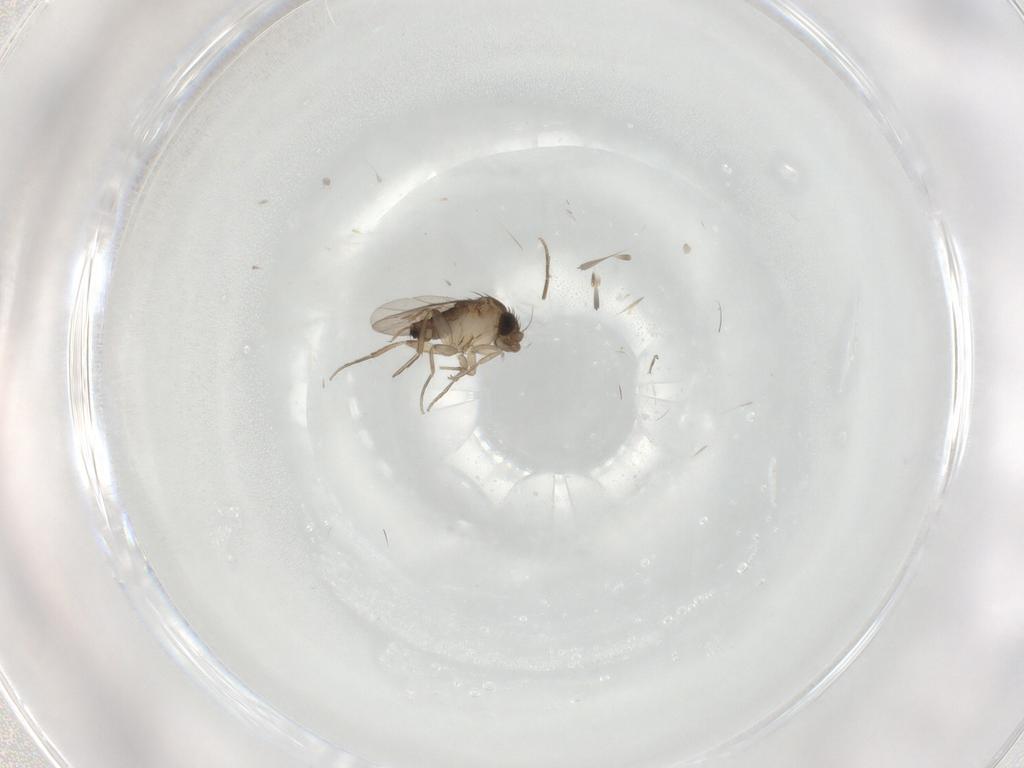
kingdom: Animalia
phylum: Arthropoda
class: Insecta
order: Diptera
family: Phoridae
